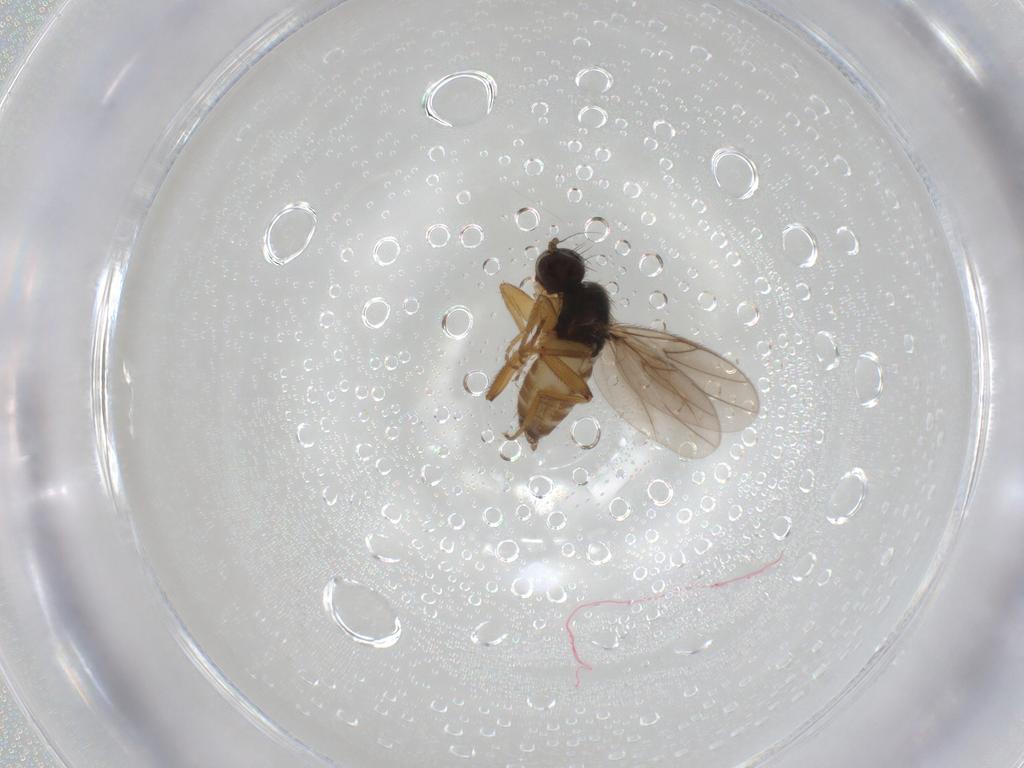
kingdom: Animalia
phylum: Arthropoda
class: Insecta
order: Diptera
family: Hybotidae
